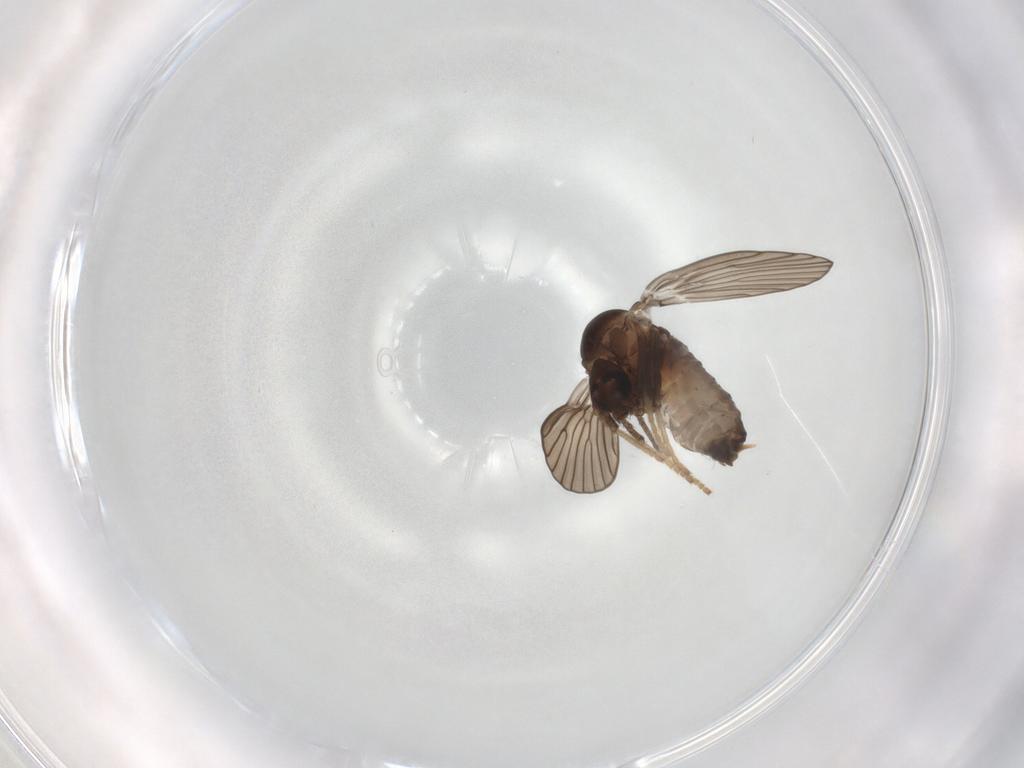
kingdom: Animalia
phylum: Arthropoda
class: Insecta
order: Diptera
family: Psychodidae
